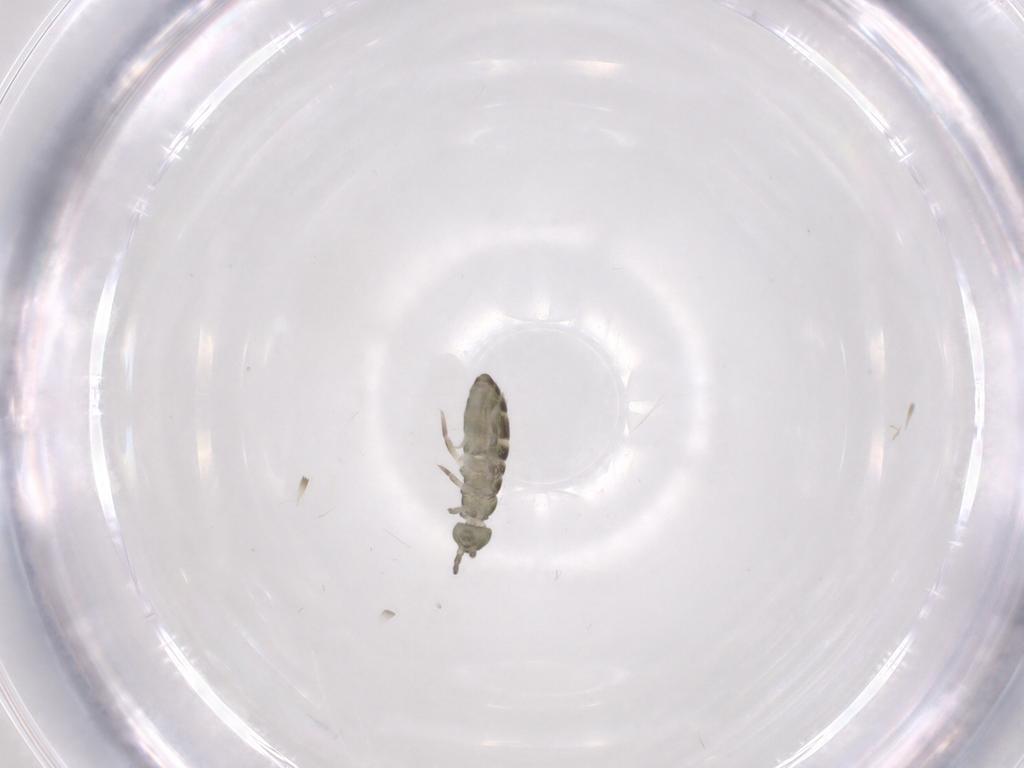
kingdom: Animalia
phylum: Arthropoda
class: Collembola
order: Entomobryomorpha
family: Isotomidae
